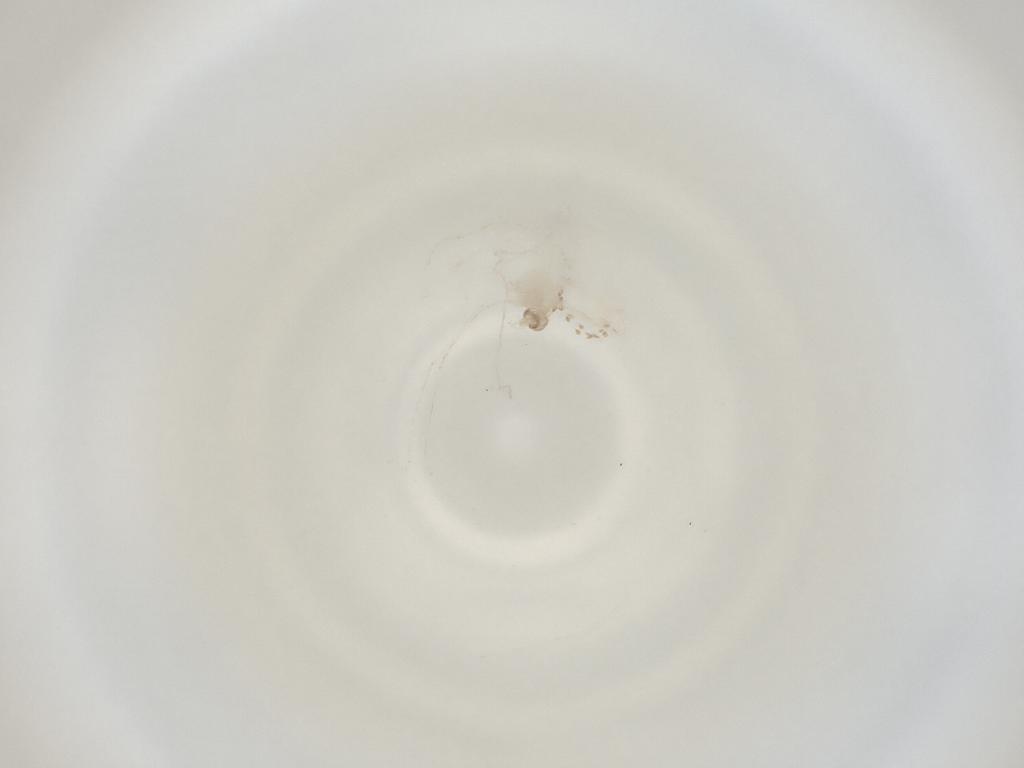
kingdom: Animalia
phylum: Arthropoda
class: Insecta
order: Diptera
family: Cecidomyiidae
